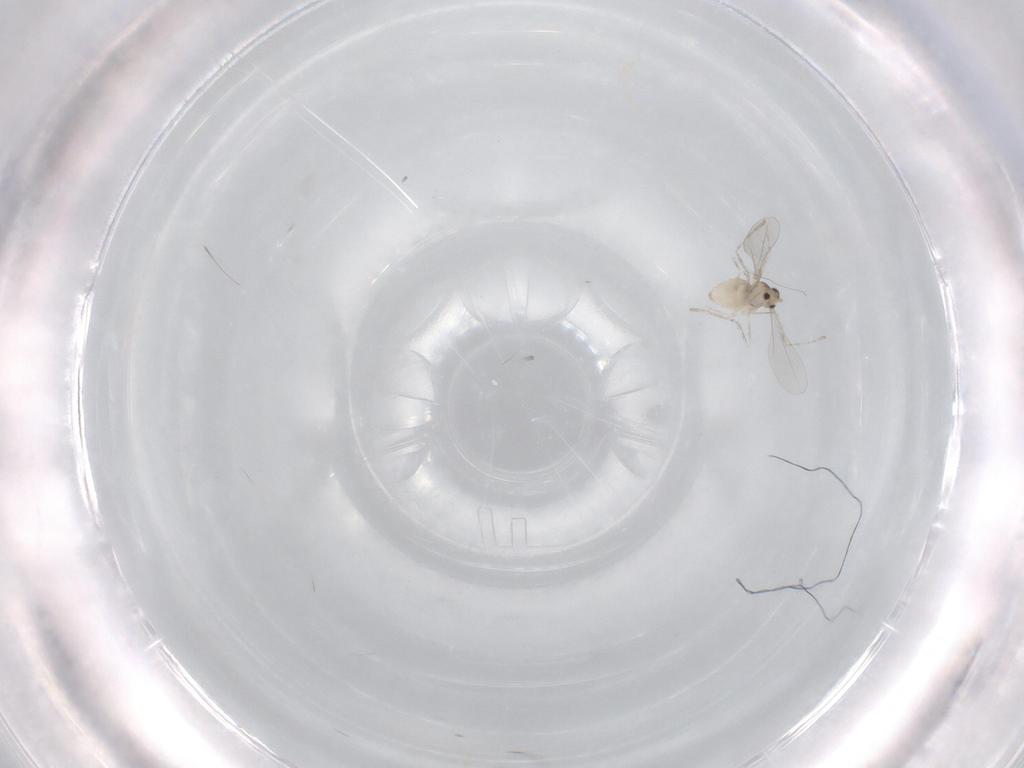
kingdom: Animalia
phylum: Arthropoda
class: Insecta
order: Diptera
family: Cecidomyiidae
